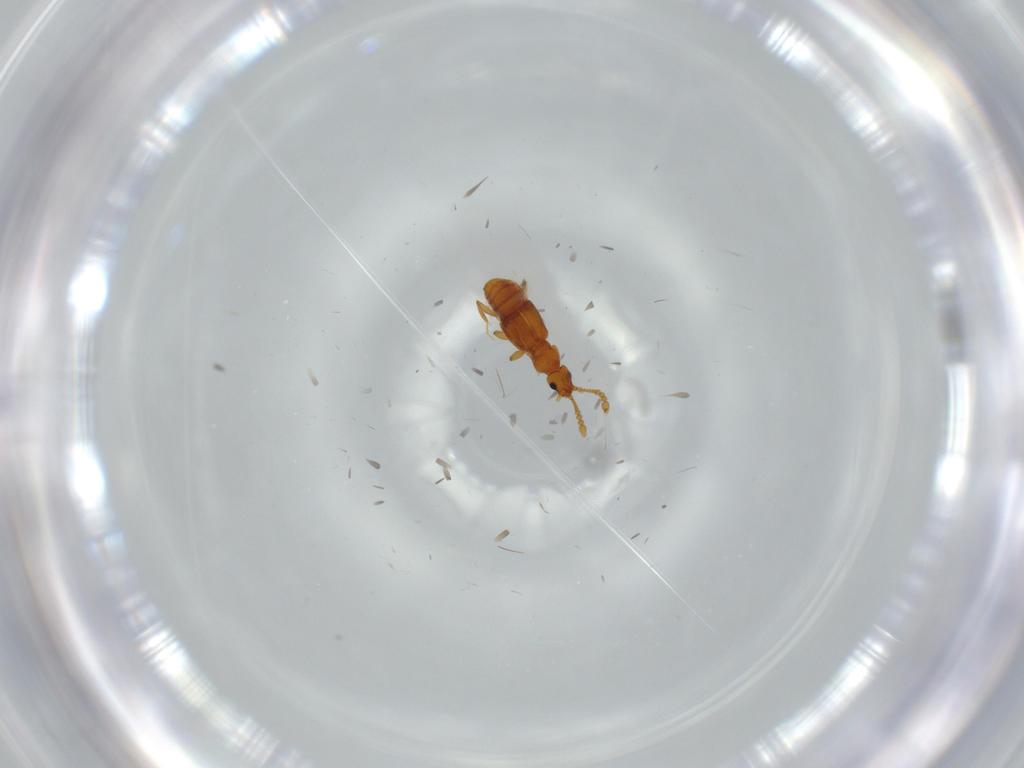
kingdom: Animalia
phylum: Arthropoda
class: Insecta
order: Coleoptera
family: Staphylinidae
